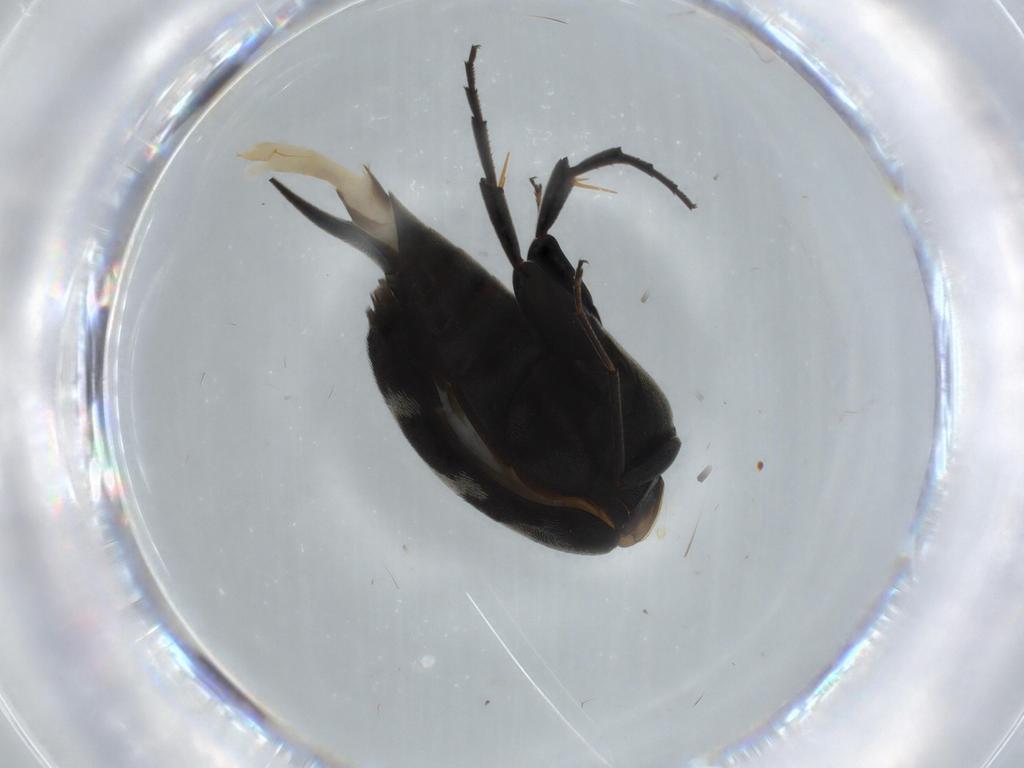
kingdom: Animalia
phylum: Arthropoda
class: Insecta
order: Coleoptera
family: Mordellidae
